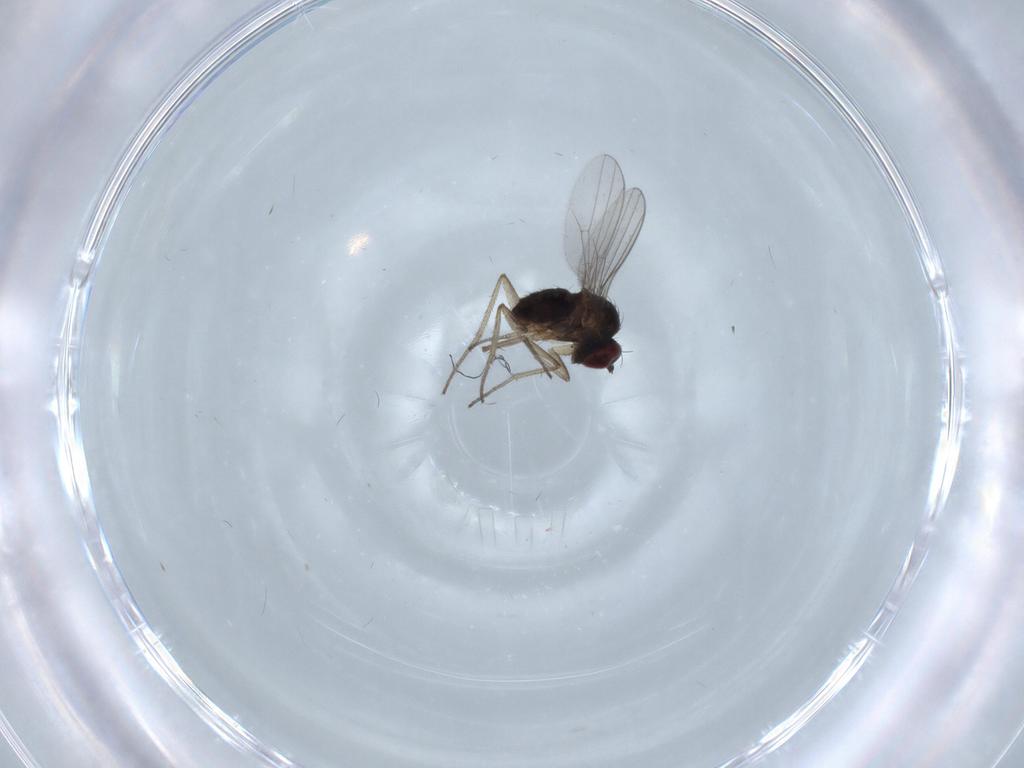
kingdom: Animalia
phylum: Arthropoda
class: Insecta
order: Diptera
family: Dolichopodidae
